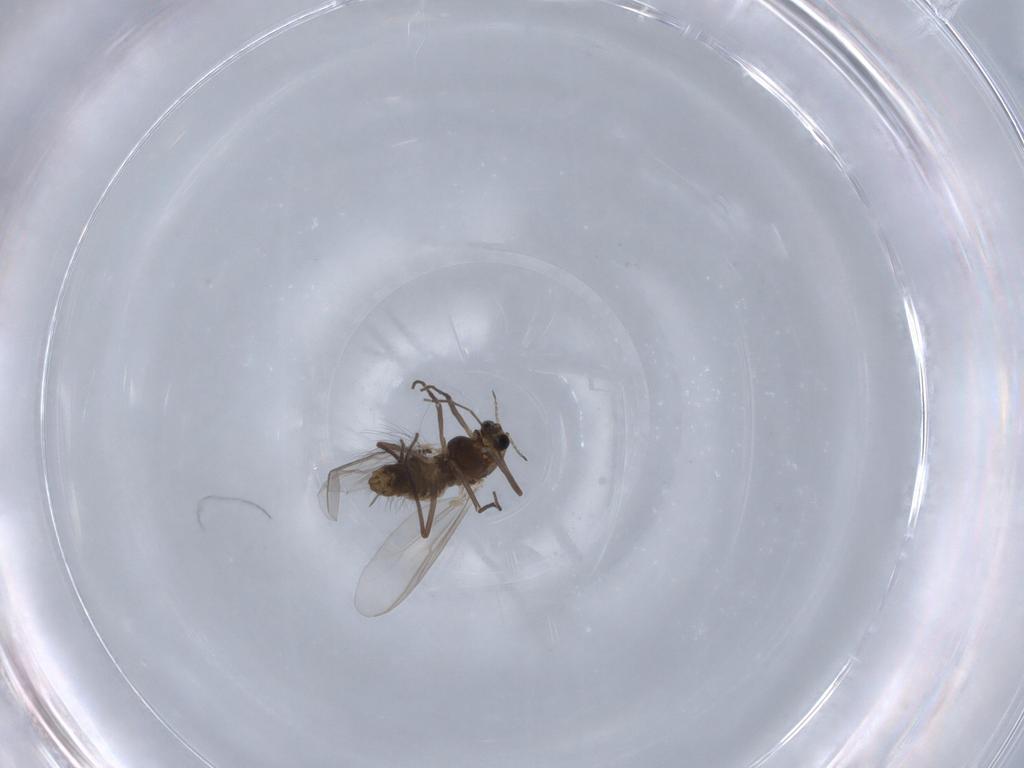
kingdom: Animalia
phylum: Arthropoda
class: Insecta
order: Diptera
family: Chironomidae
